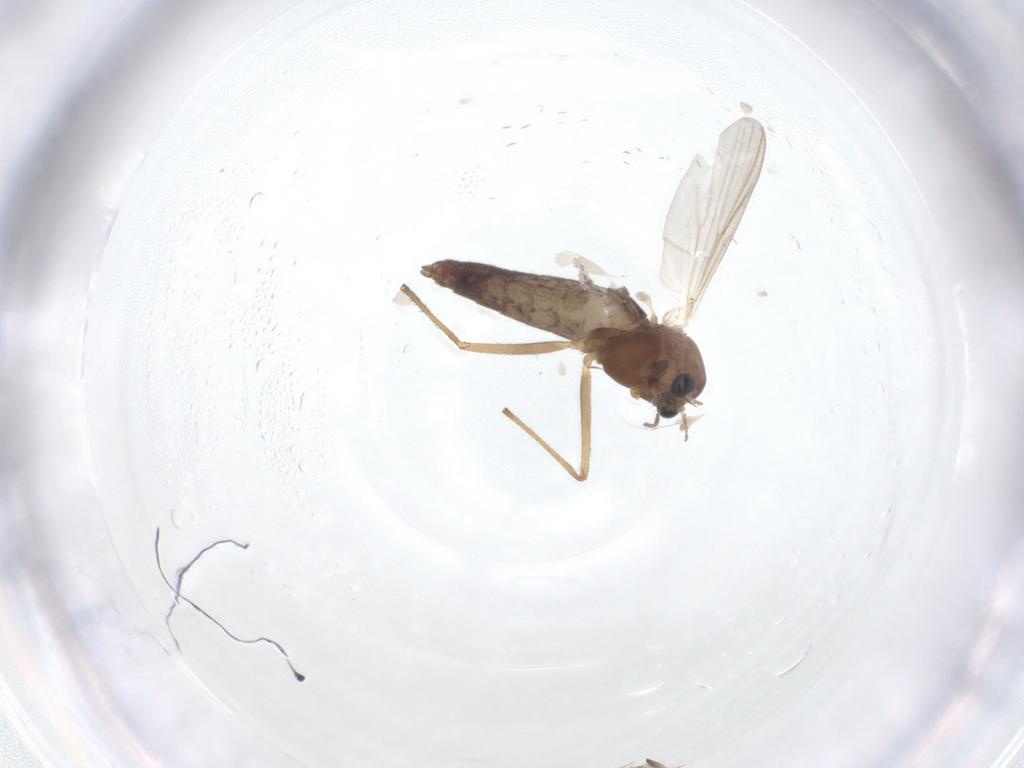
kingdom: Animalia
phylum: Arthropoda
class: Insecta
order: Diptera
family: Chironomidae
